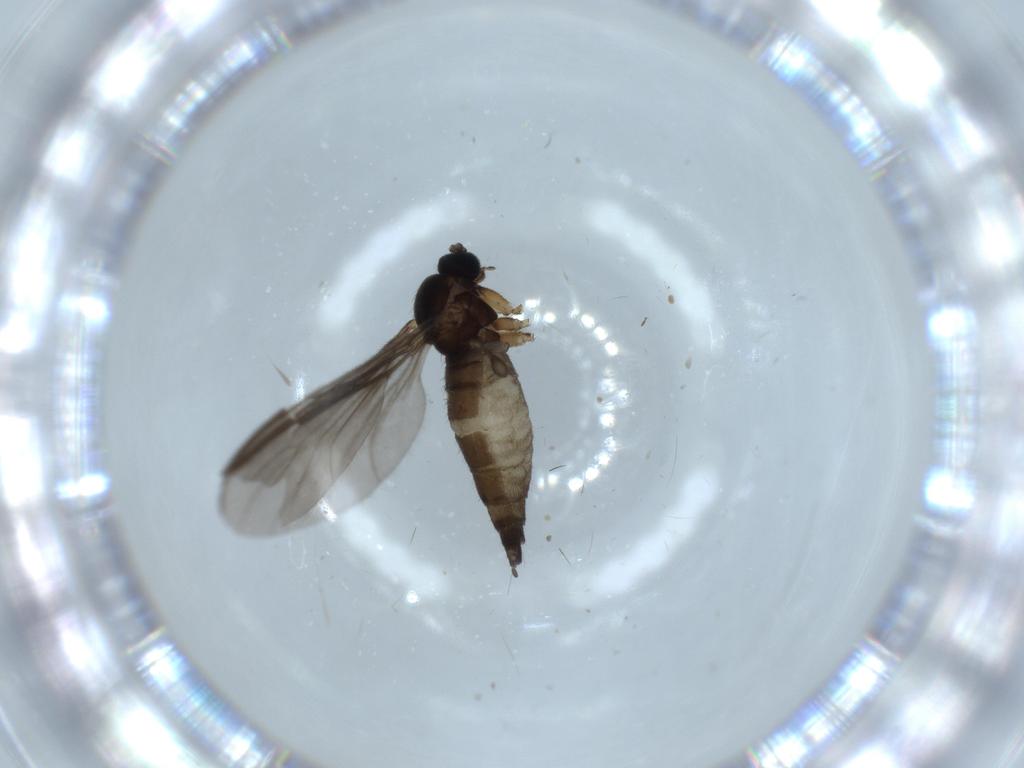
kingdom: Animalia
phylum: Arthropoda
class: Insecta
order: Diptera
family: Sciaridae
